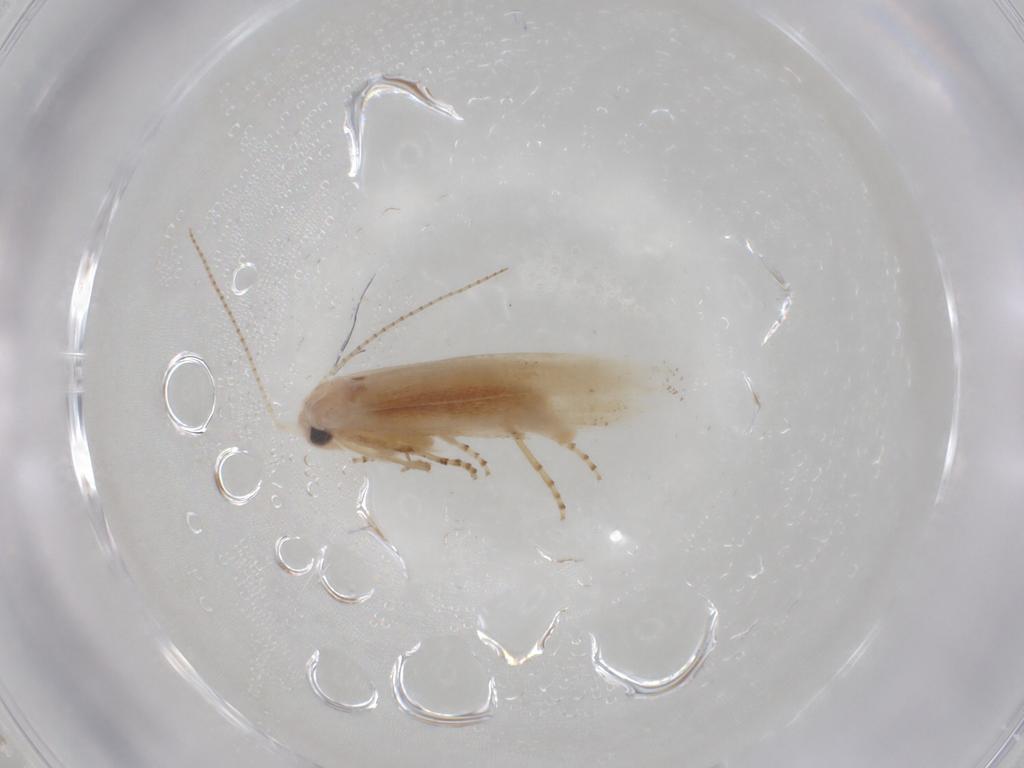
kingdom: Animalia
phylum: Arthropoda
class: Insecta
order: Lepidoptera
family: Bucculatricidae
